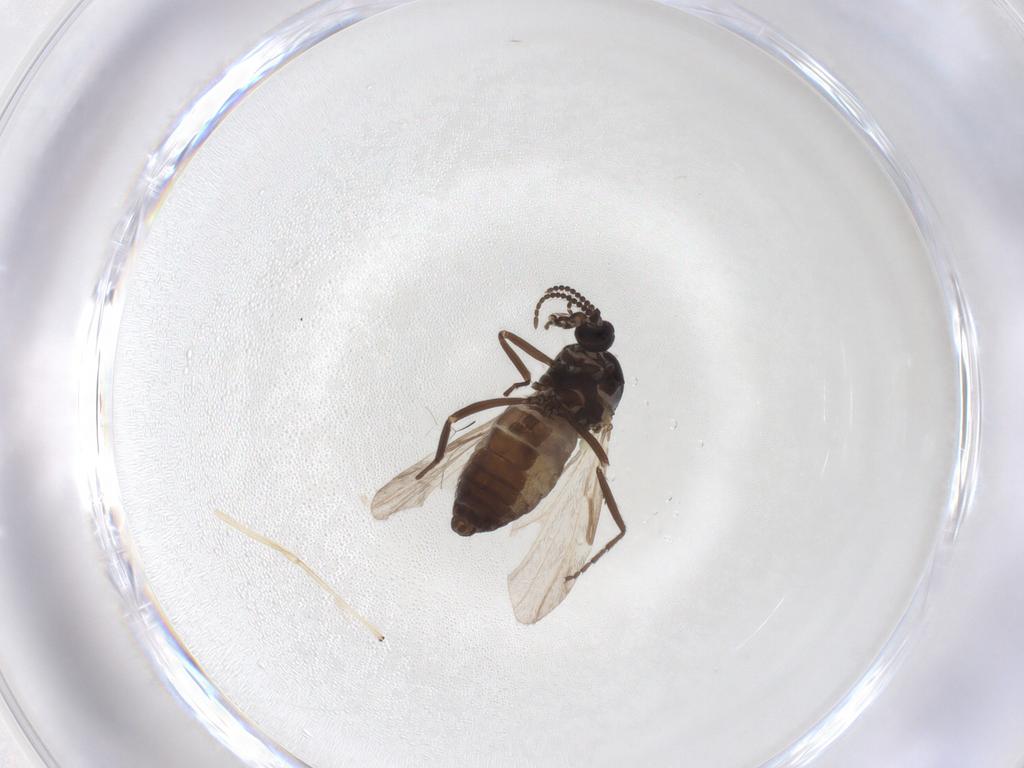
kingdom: Animalia
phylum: Arthropoda
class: Insecta
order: Diptera
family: Ceratopogonidae
